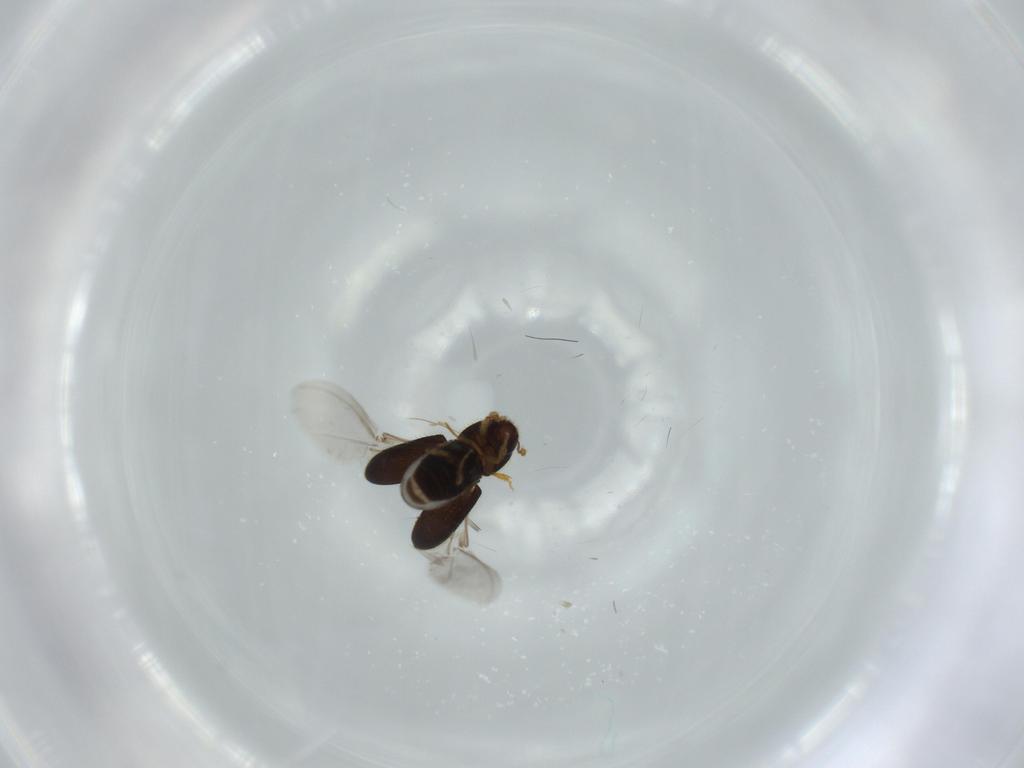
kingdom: Animalia
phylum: Arthropoda
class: Insecta
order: Coleoptera
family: Curculionidae
